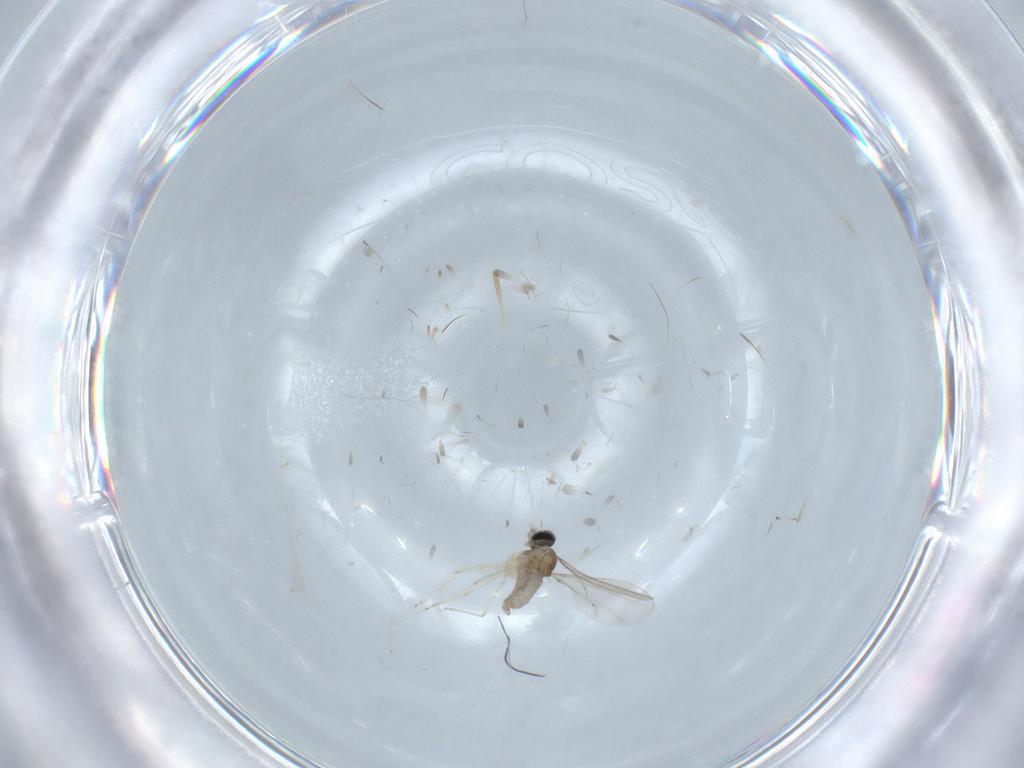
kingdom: Animalia
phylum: Arthropoda
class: Insecta
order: Diptera
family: Cecidomyiidae
